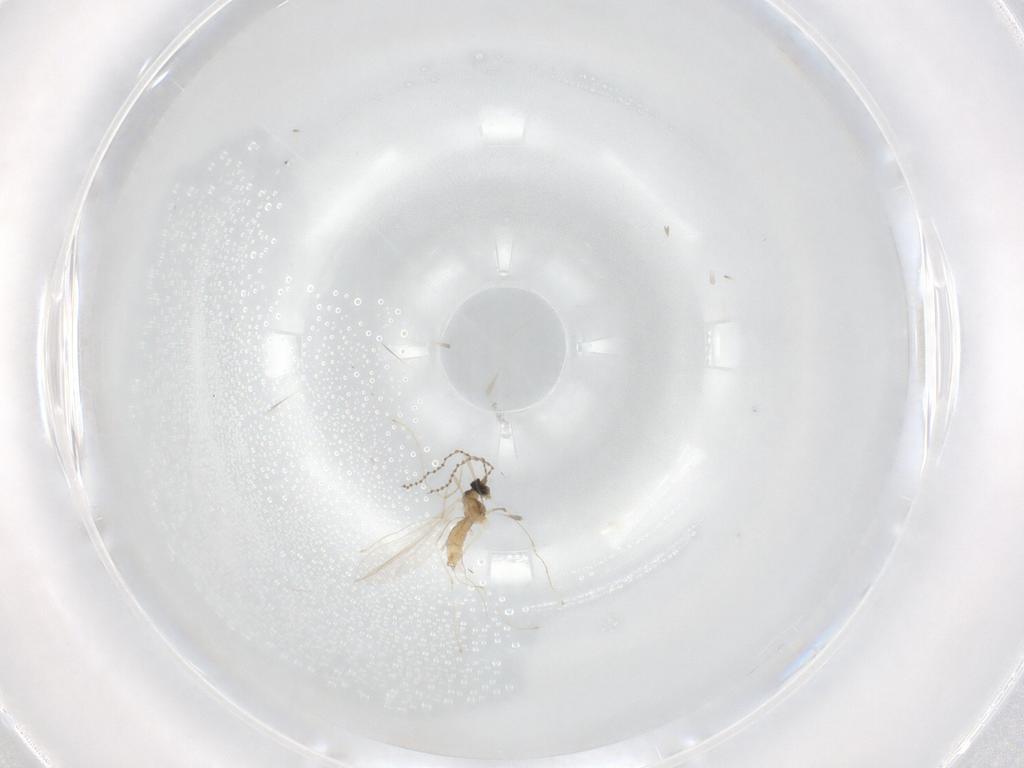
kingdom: Animalia
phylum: Arthropoda
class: Insecta
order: Diptera
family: Cecidomyiidae
